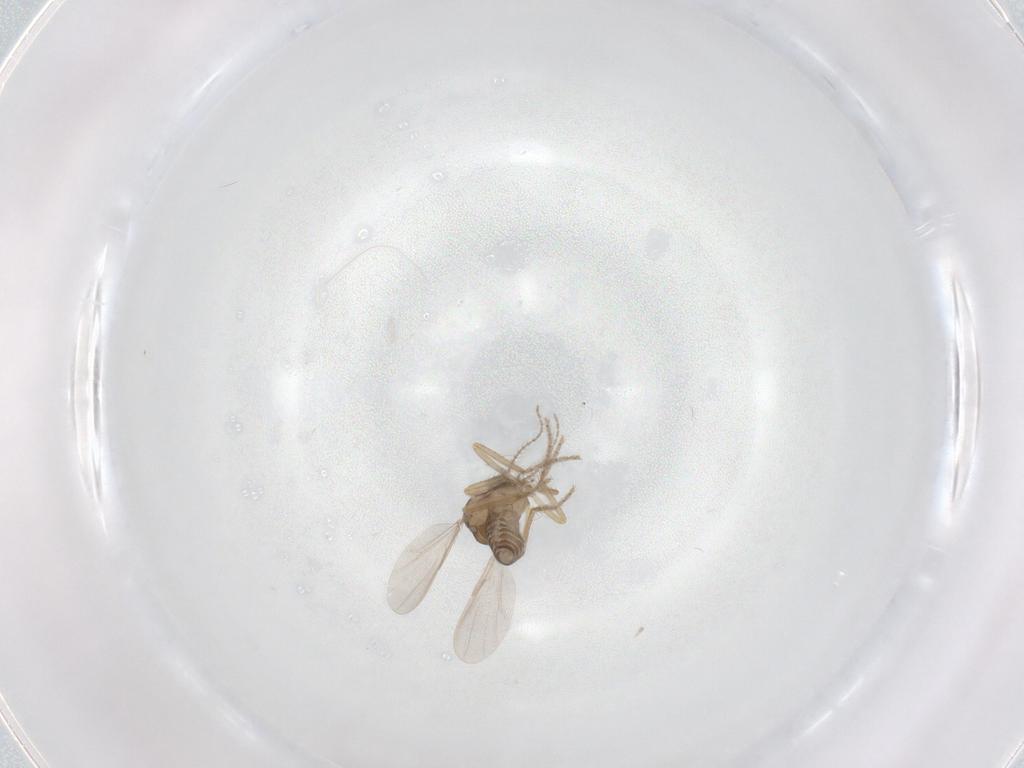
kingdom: Animalia
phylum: Arthropoda
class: Insecta
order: Diptera
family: Ceratopogonidae
